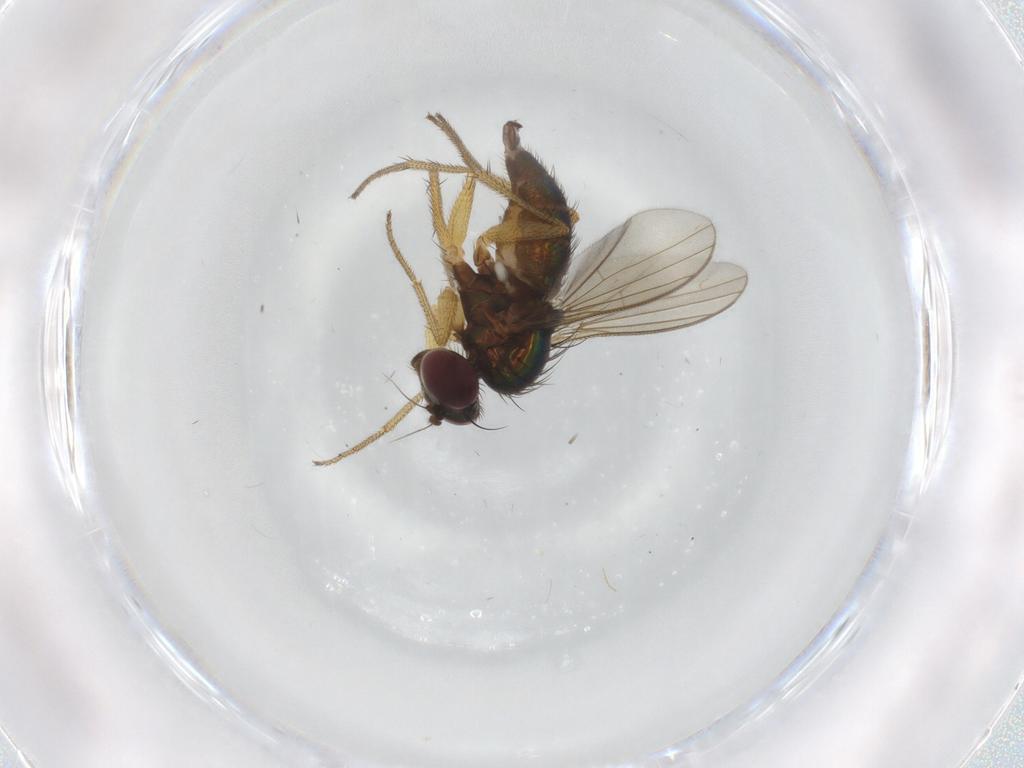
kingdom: Animalia
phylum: Arthropoda
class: Insecta
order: Diptera
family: Dolichopodidae
